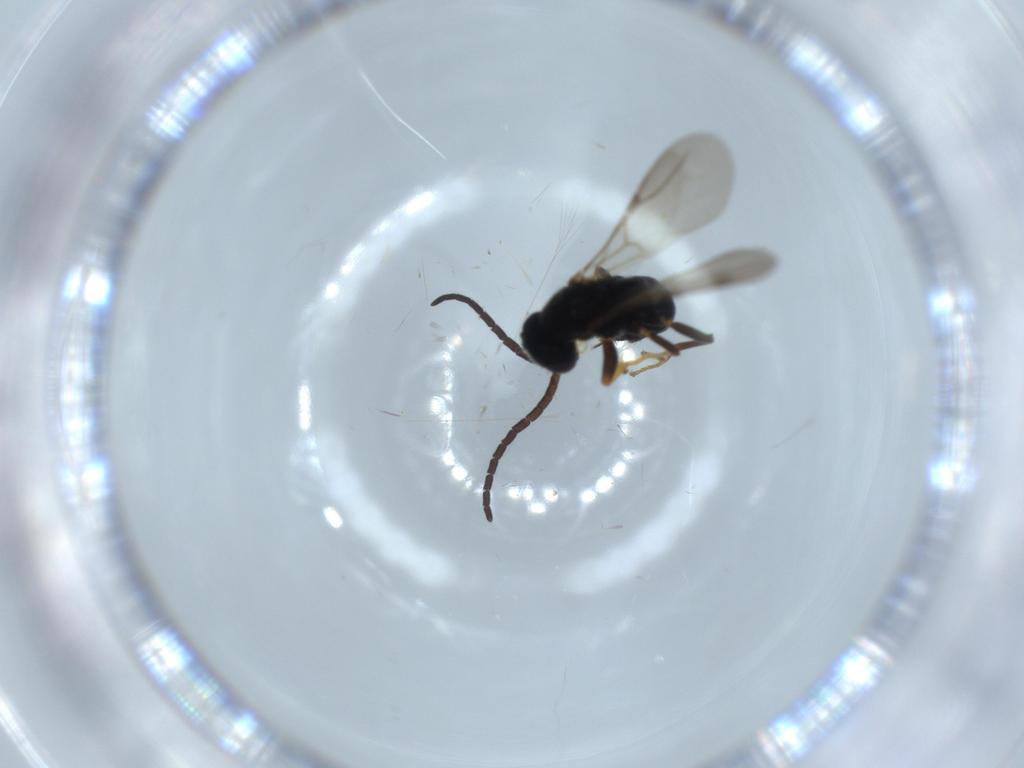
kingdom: Animalia
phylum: Arthropoda
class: Insecta
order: Hymenoptera
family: Bethylidae
